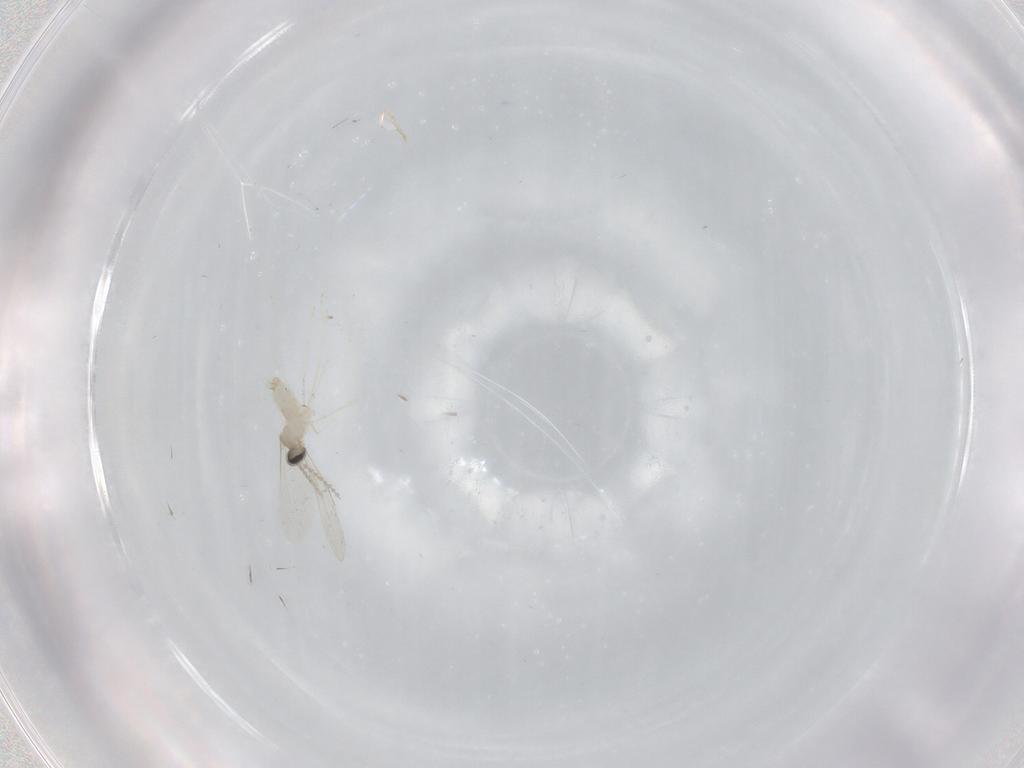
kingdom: Animalia
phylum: Arthropoda
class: Insecta
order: Diptera
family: Cecidomyiidae
